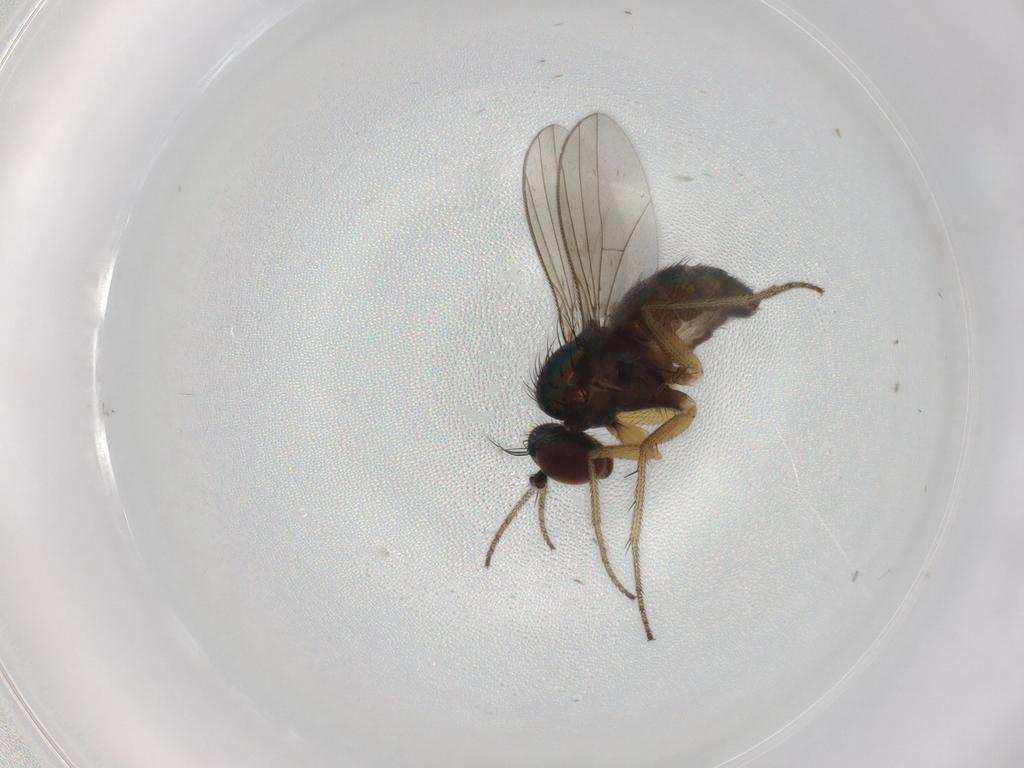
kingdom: Animalia
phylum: Arthropoda
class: Insecta
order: Diptera
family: Dolichopodidae
